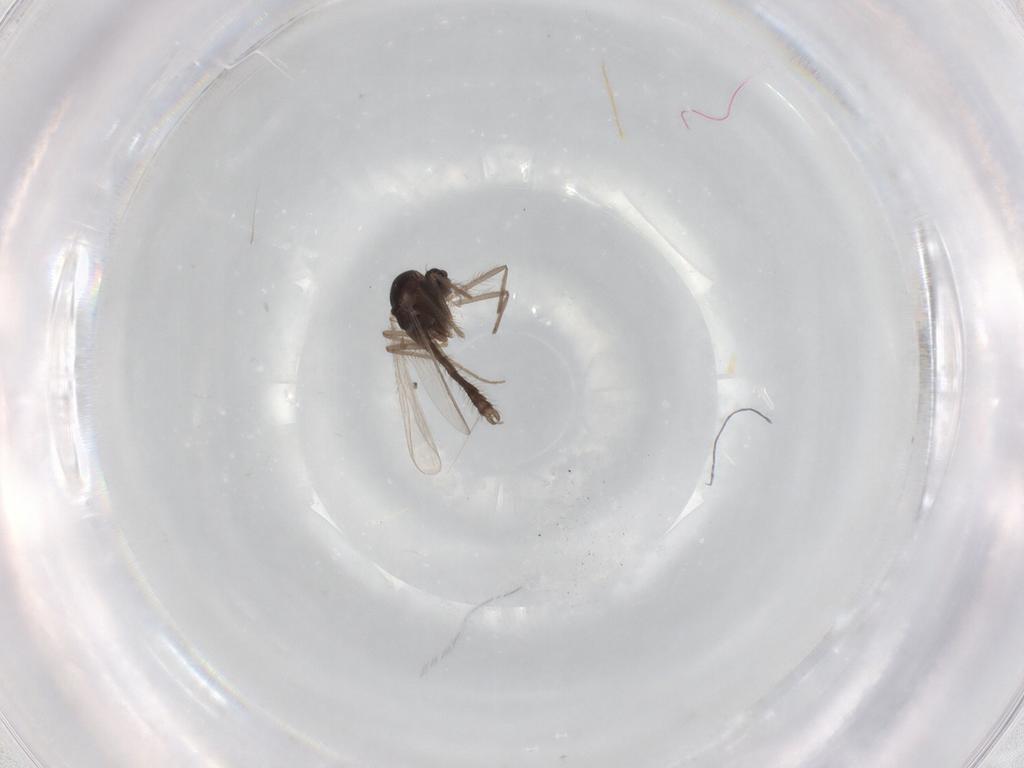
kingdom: Animalia
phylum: Arthropoda
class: Insecta
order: Diptera
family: Chironomidae
